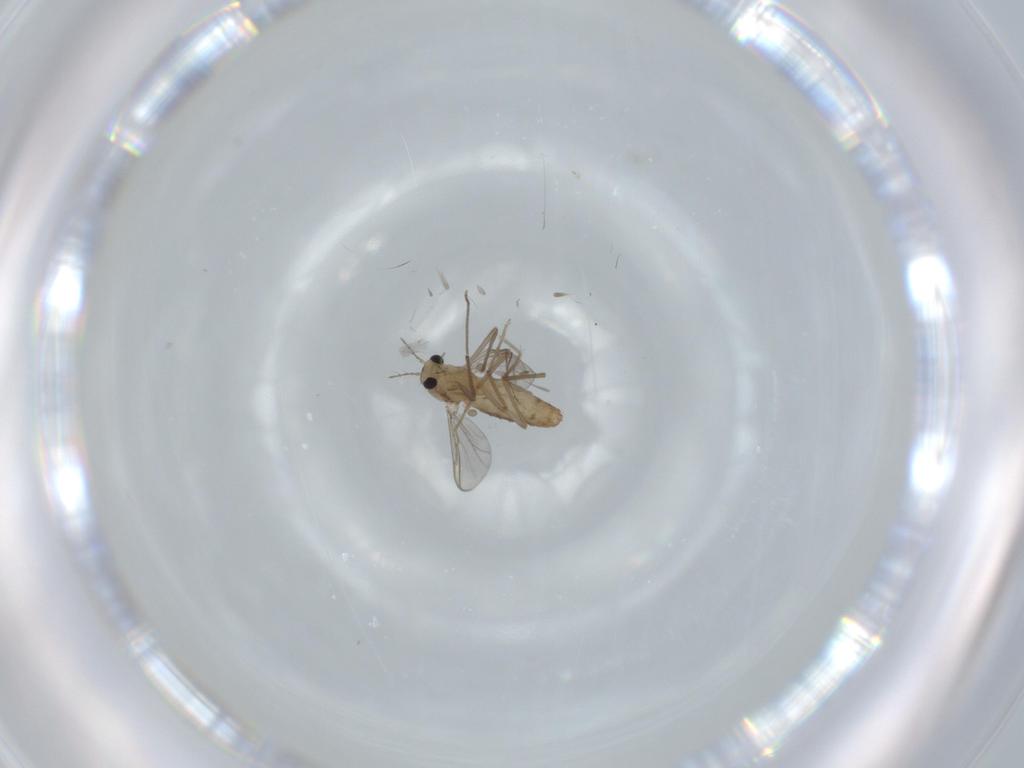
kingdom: Animalia
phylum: Arthropoda
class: Insecta
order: Diptera
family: Chironomidae
